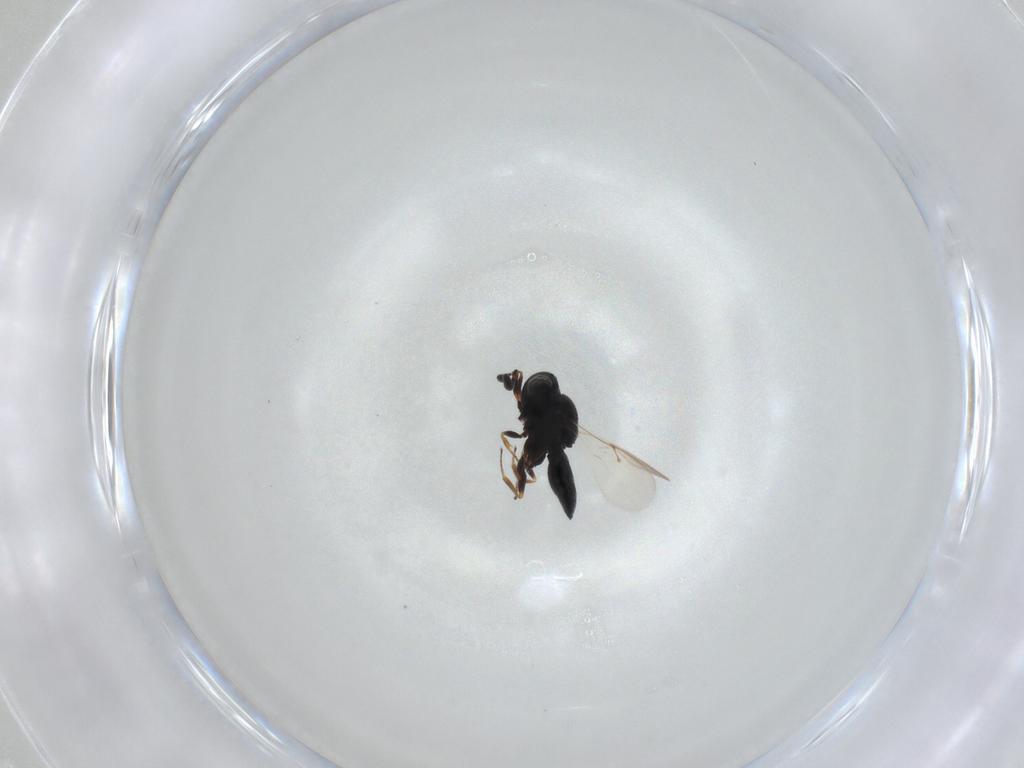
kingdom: Animalia
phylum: Arthropoda
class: Insecta
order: Hymenoptera
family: Scelionidae
